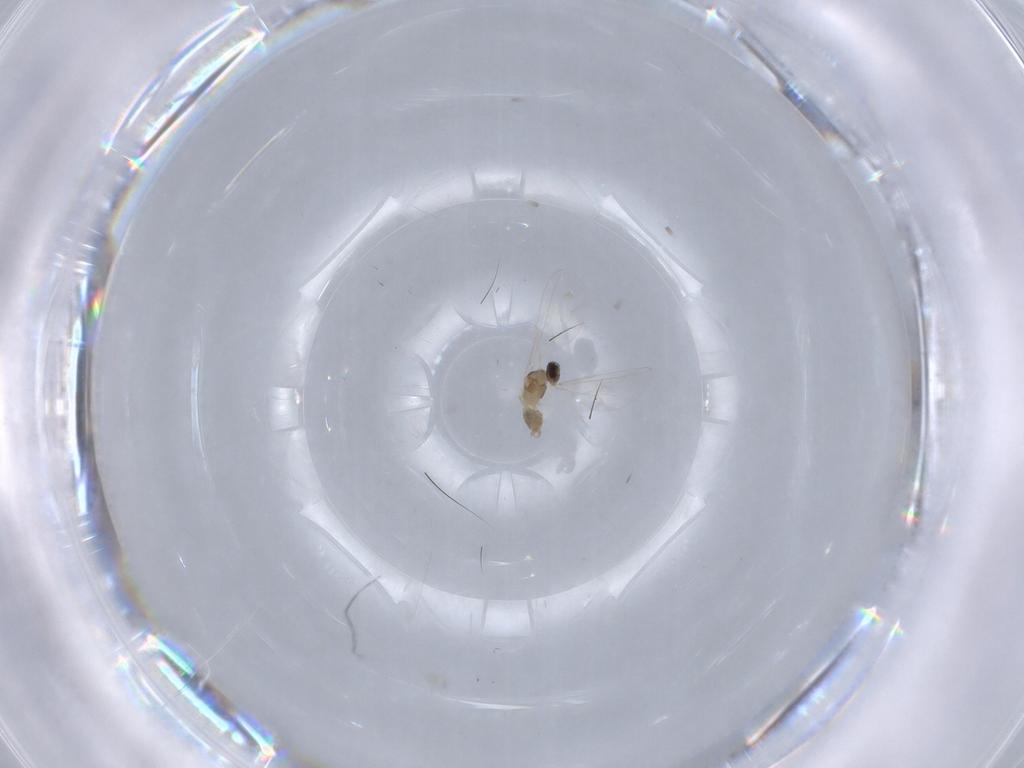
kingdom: Animalia
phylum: Arthropoda
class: Insecta
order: Diptera
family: Cecidomyiidae
